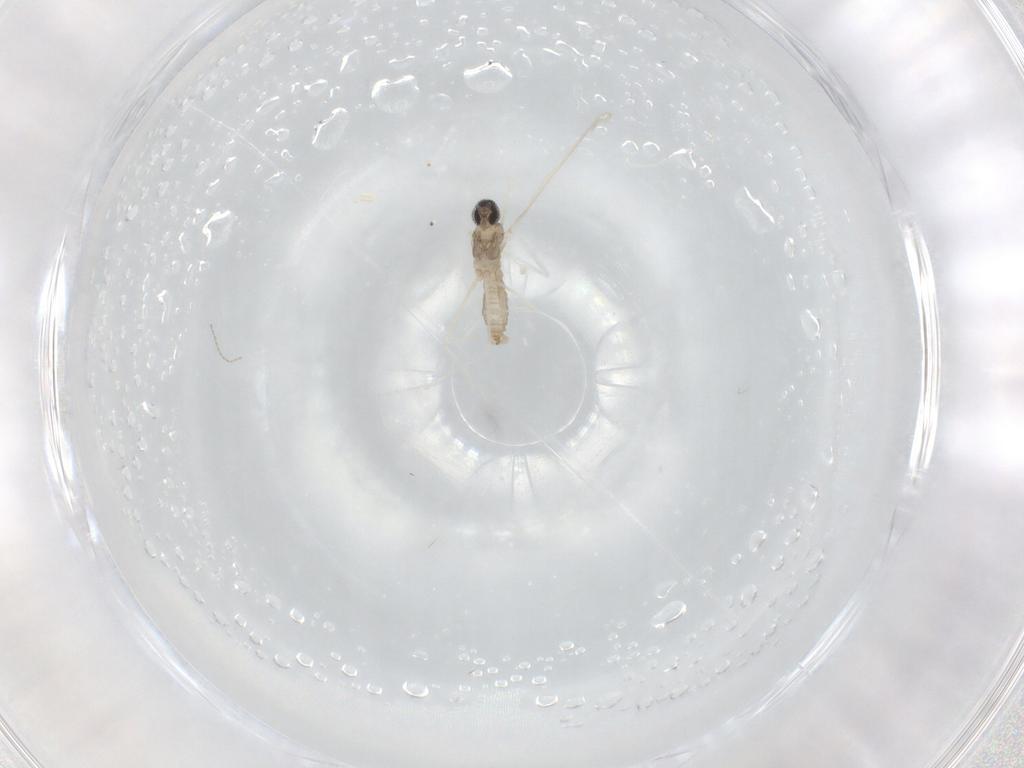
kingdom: Animalia
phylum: Arthropoda
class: Insecta
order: Diptera
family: Cecidomyiidae
